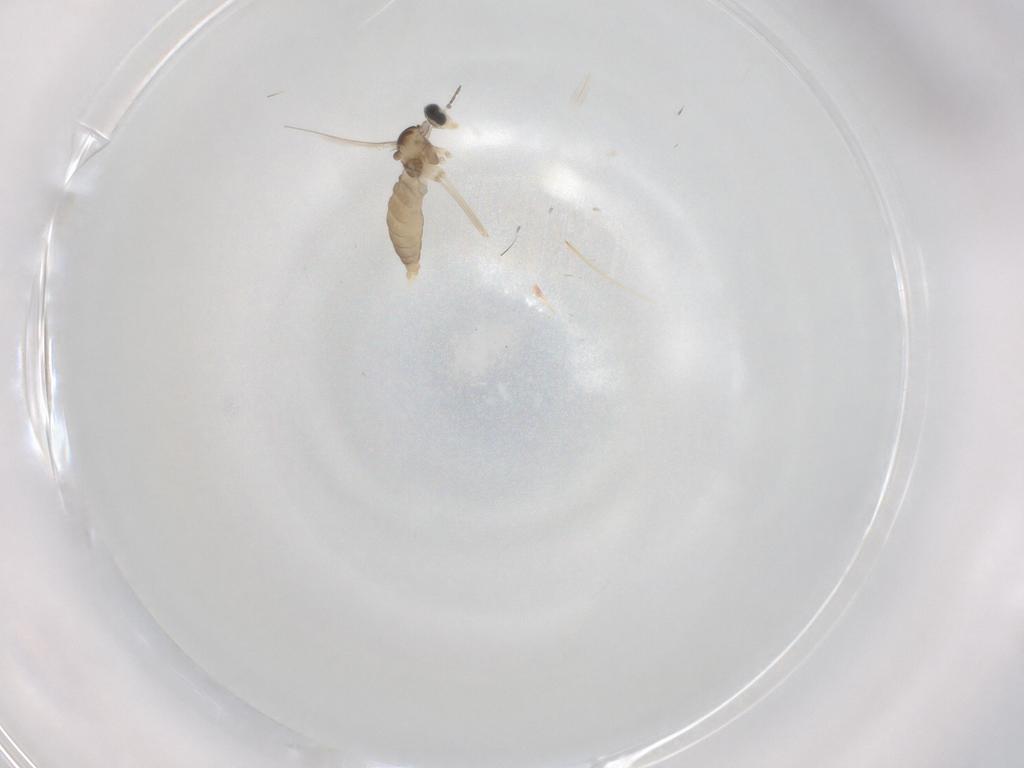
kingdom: Animalia
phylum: Arthropoda
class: Insecta
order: Diptera
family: Cecidomyiidae
